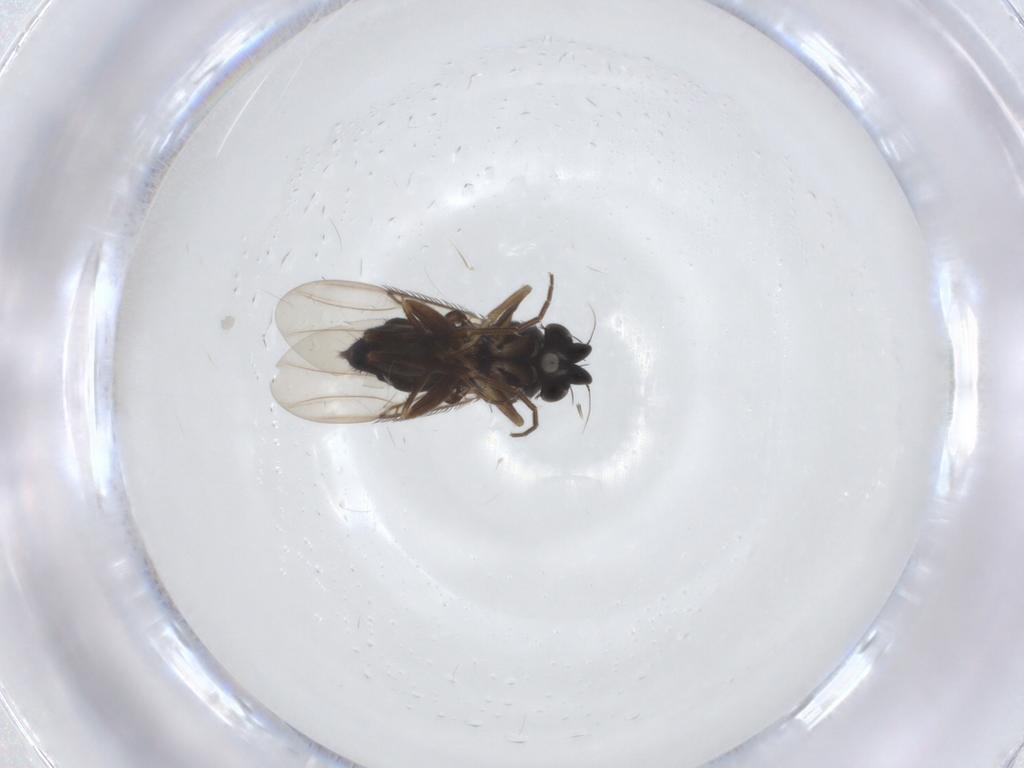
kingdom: Animalia
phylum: Arthropoda
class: Insecta
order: Diptera
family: Phoridae
